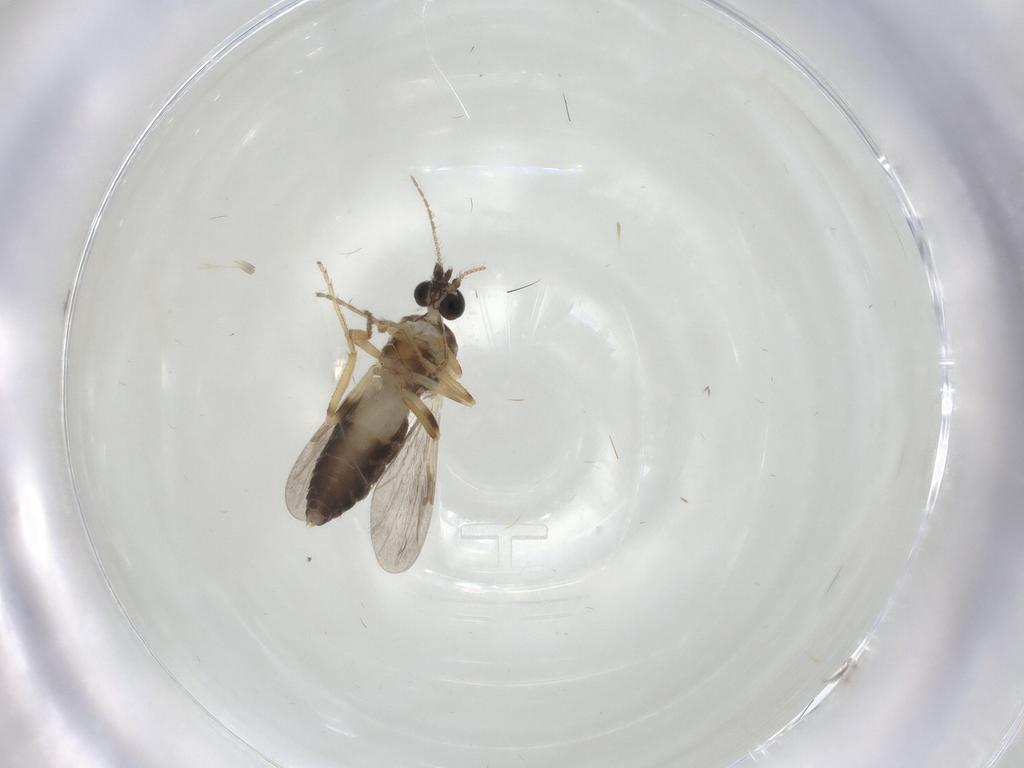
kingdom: Animalia
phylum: Arthropoda
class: Insecta
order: Diptera
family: Ceratopogonidae
